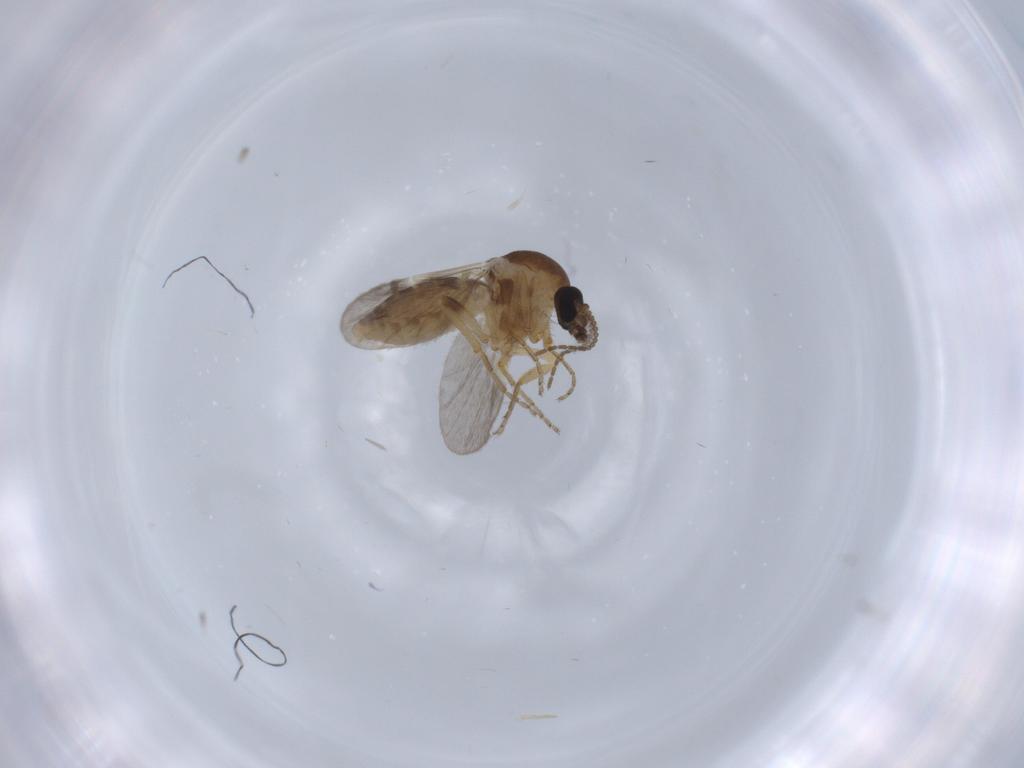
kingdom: Animalia
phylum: Arthropoda
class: Insecta
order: Diptera
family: Ceratopogonidae
